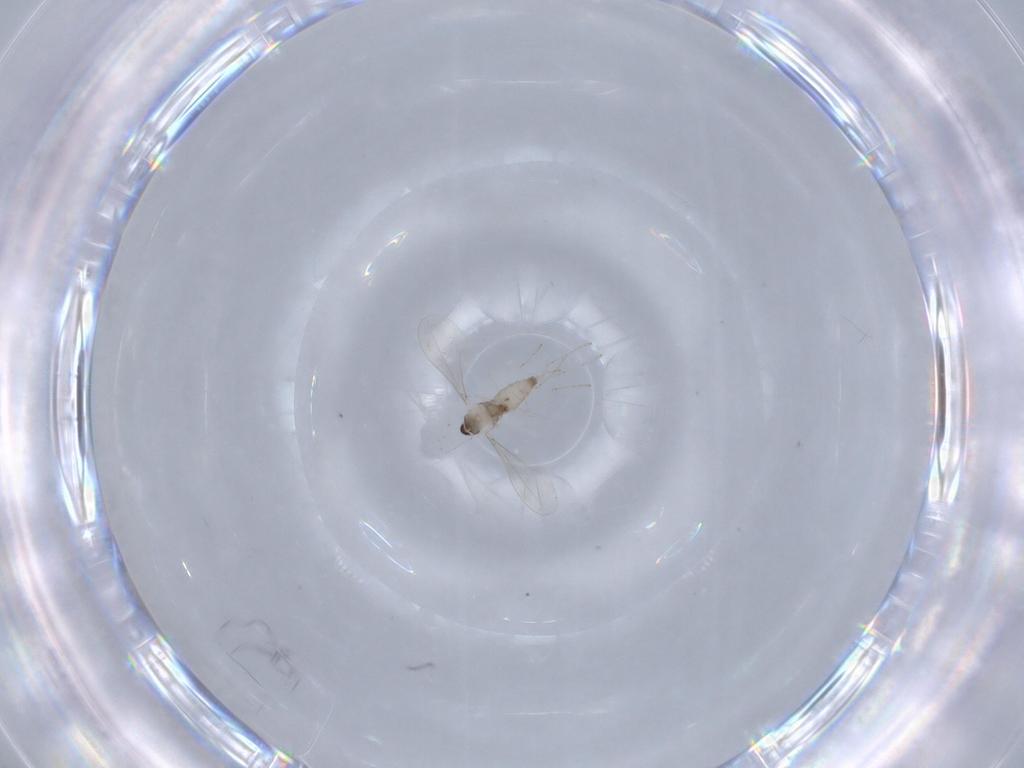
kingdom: Animalia
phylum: Arthropoda
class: Insecta
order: Diptera
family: Cecidomyiidae
